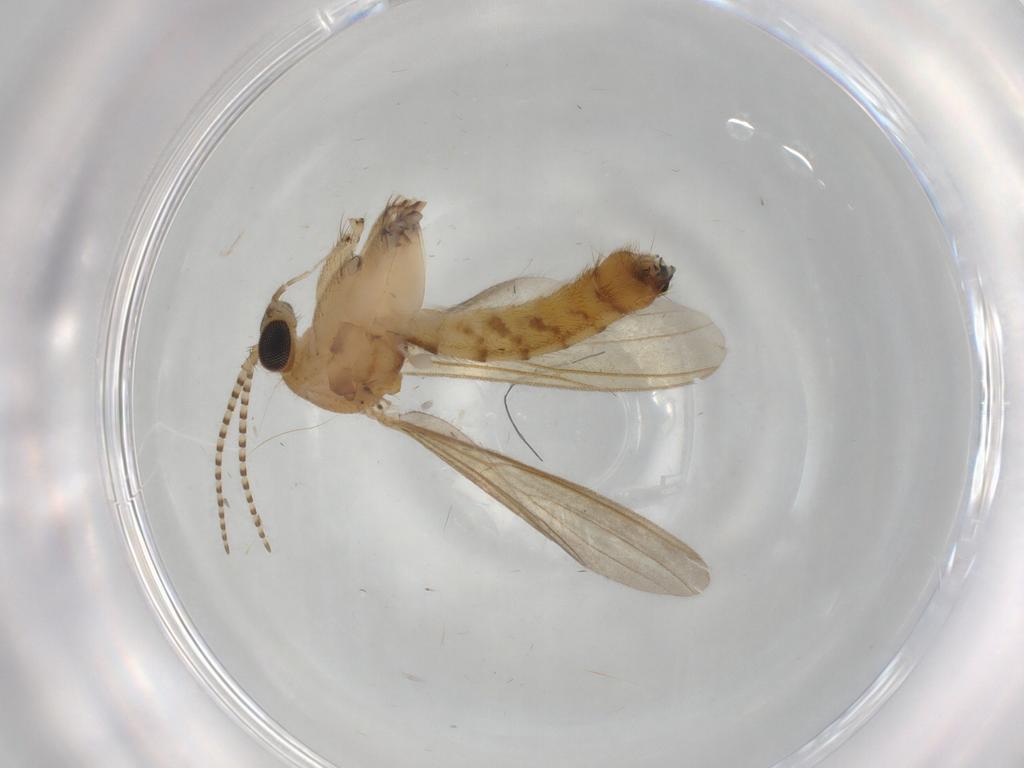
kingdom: Animalia
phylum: Arthropoda
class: Insecta
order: Diptera
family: Mycetophilidae
